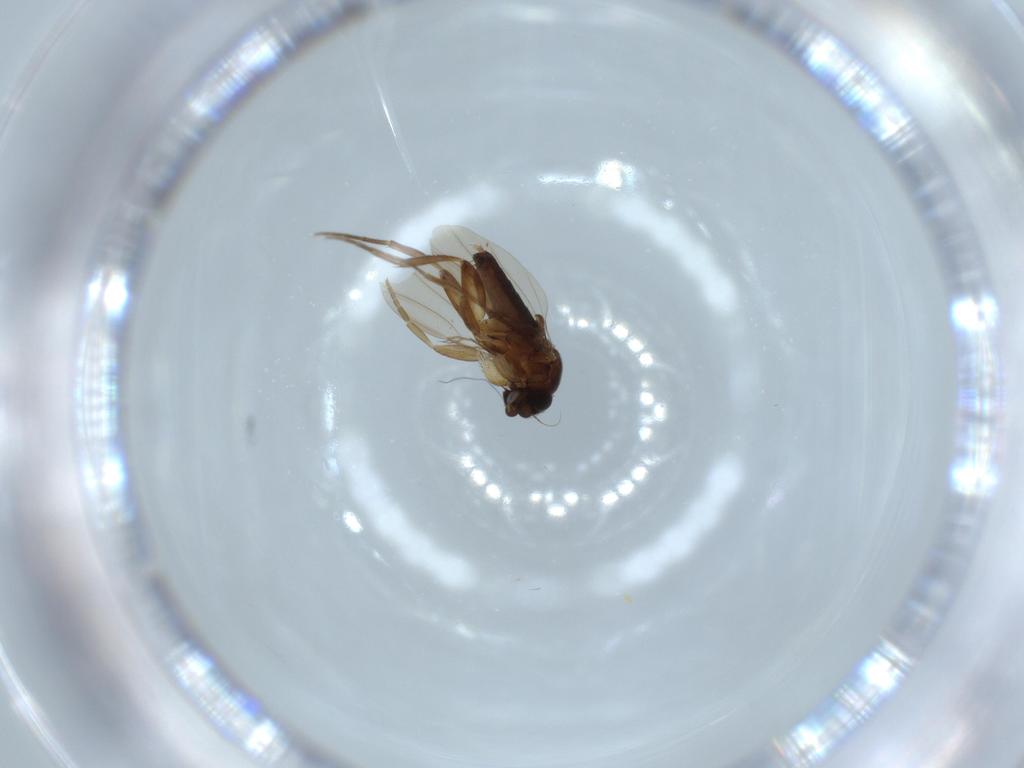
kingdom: Animalia
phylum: Arthropoda
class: Insecta
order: Diptera
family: Phoridae
